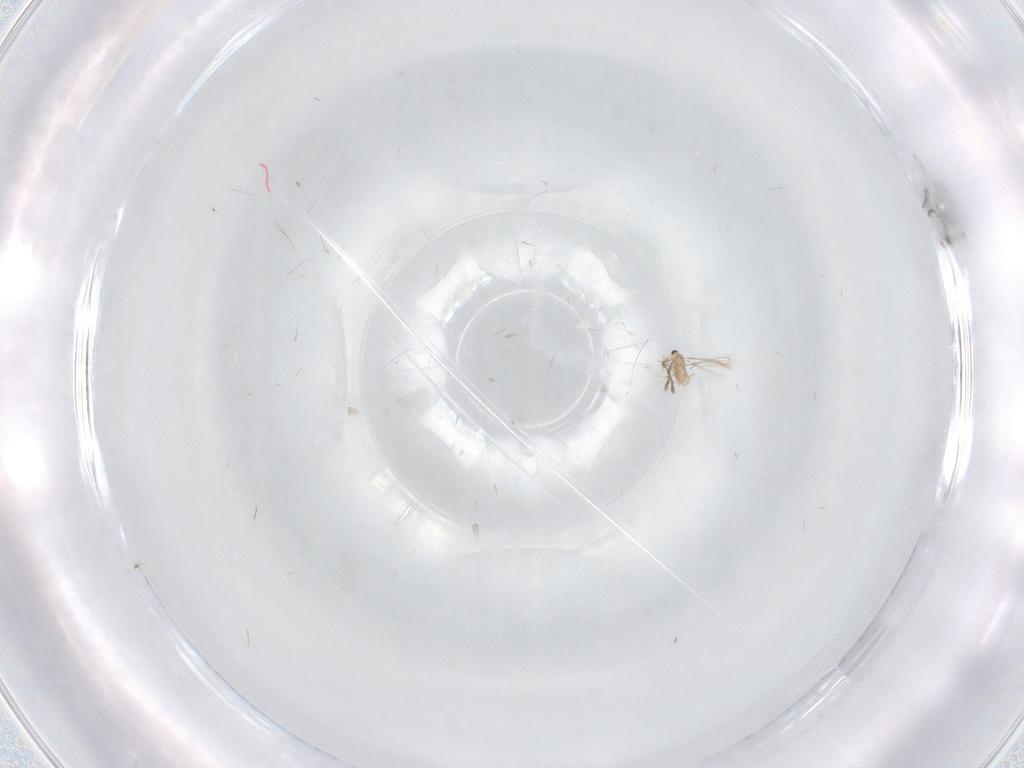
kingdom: Animalia
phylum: Arthropoda
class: Insecta
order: Hymenoptera
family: Mymaridae
